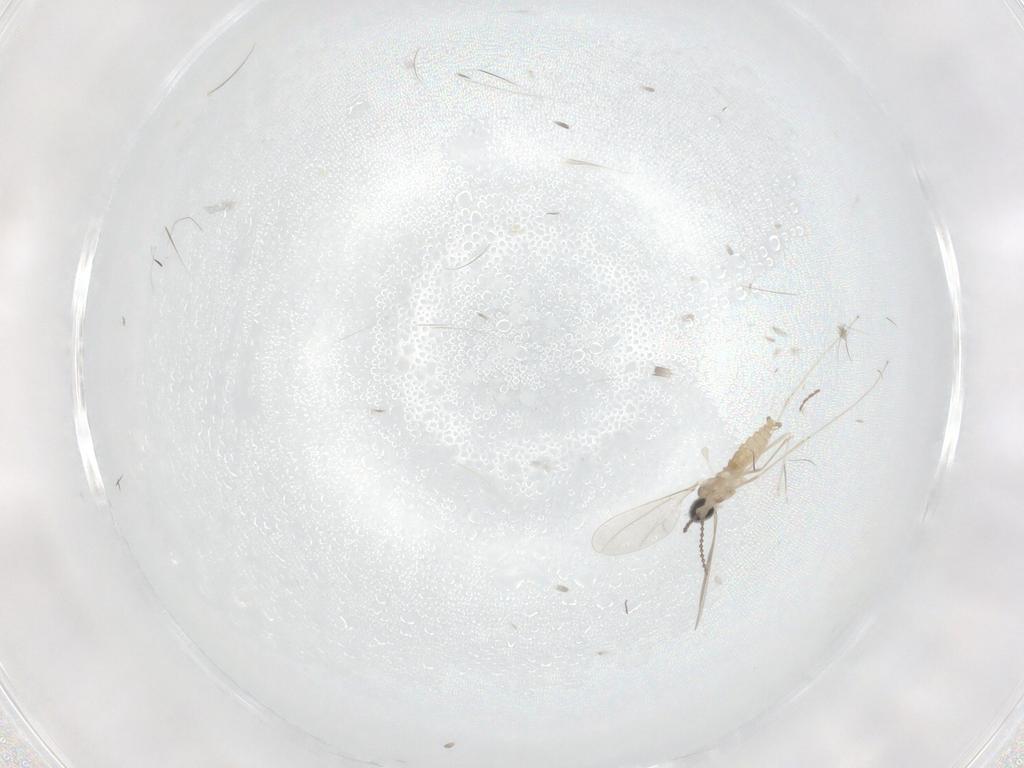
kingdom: Animalia
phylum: Arthropoda
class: Insecta
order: Diptera
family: Cecidomyiidae
